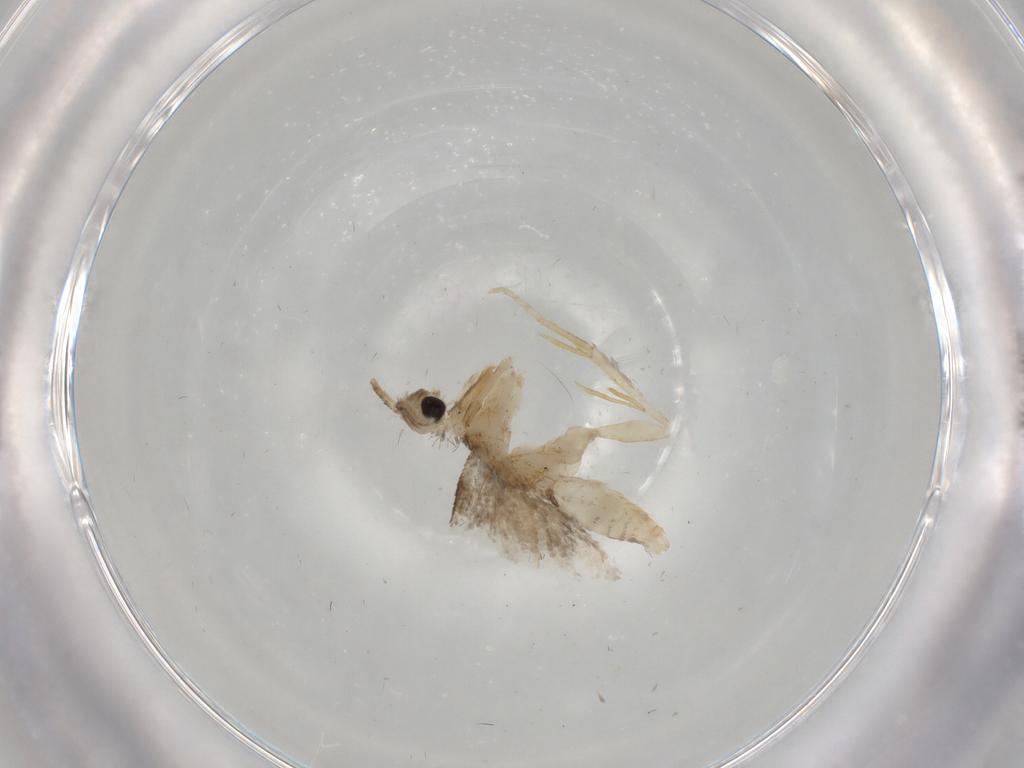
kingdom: Animalia
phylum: Arthropoda
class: Insecta
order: Lepidoptera
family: Psychidae
